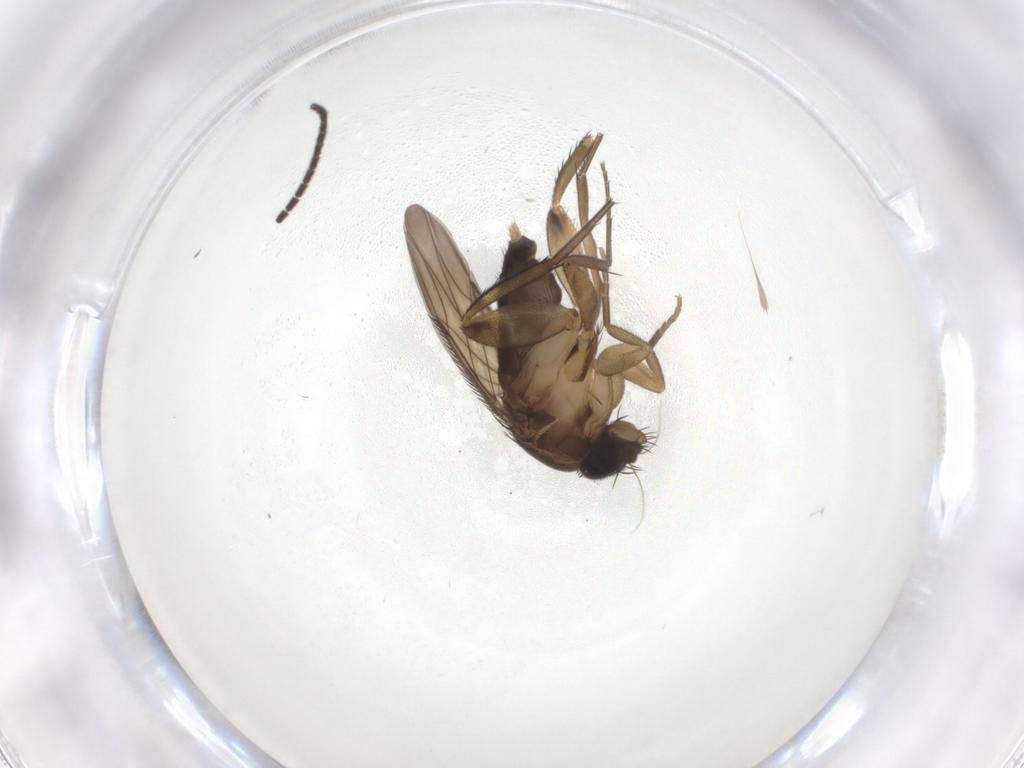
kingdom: Animalia
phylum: Arthropoda
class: Insecta
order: Diptera
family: Phoridae
